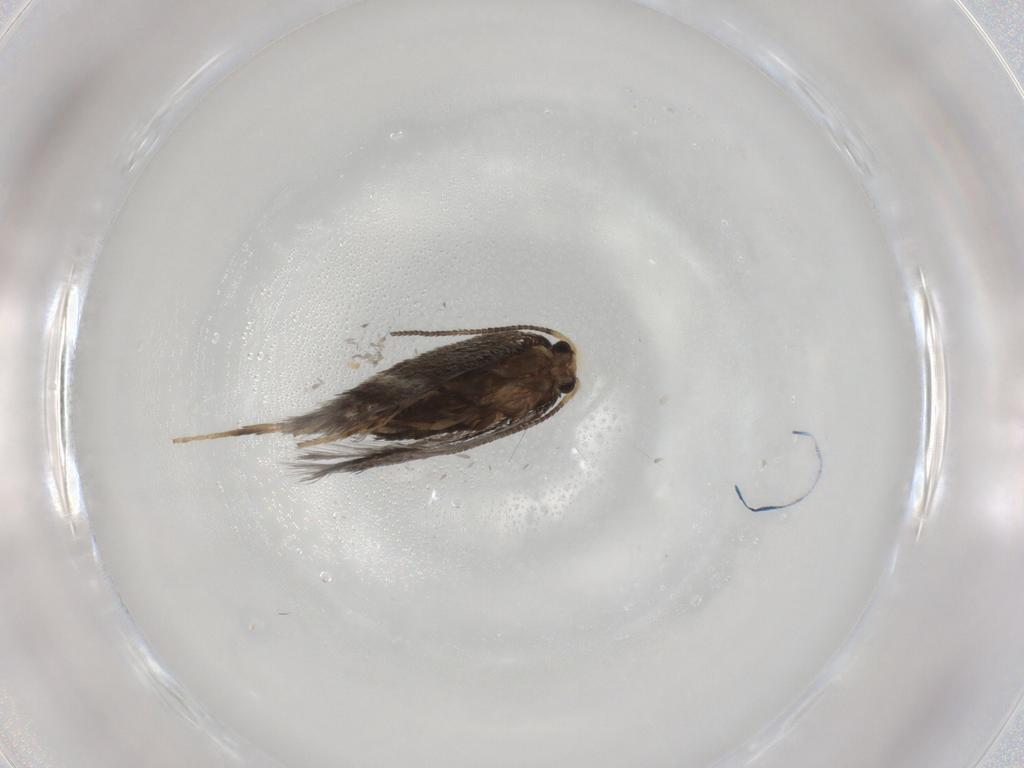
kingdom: Animalia
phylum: Arthropoda
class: Insecta
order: Lepidoptera
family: Nepticulidae
